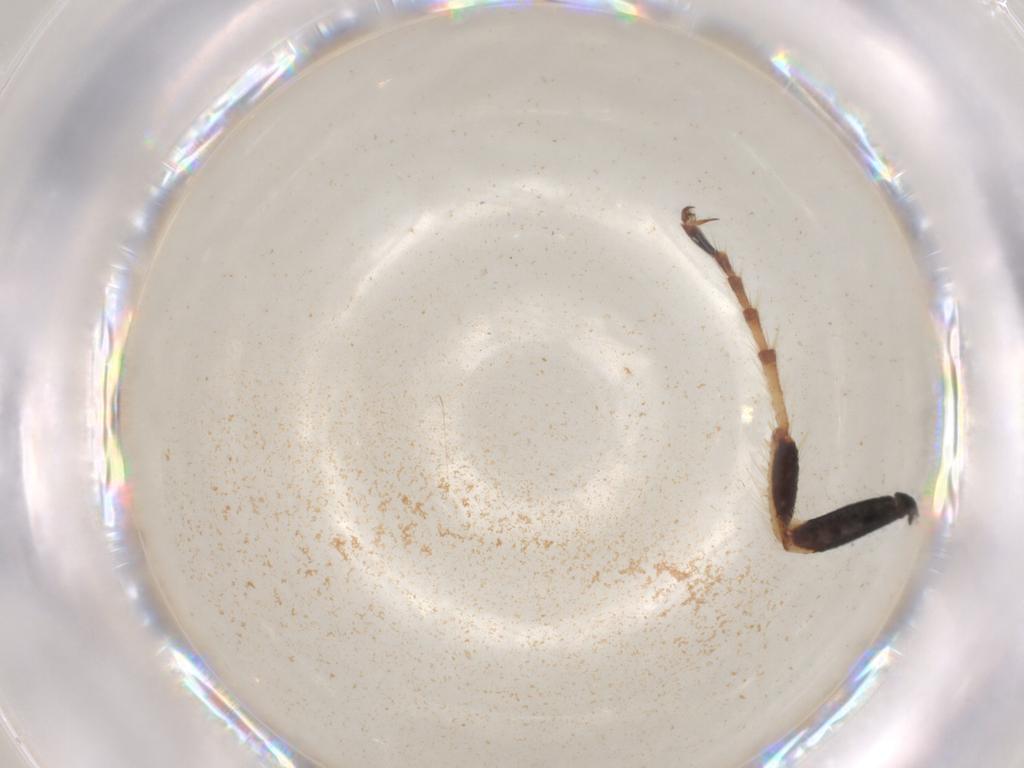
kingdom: Animalia
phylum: Arthropoda
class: Insecta
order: Hymenoptera
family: Scoliidae
